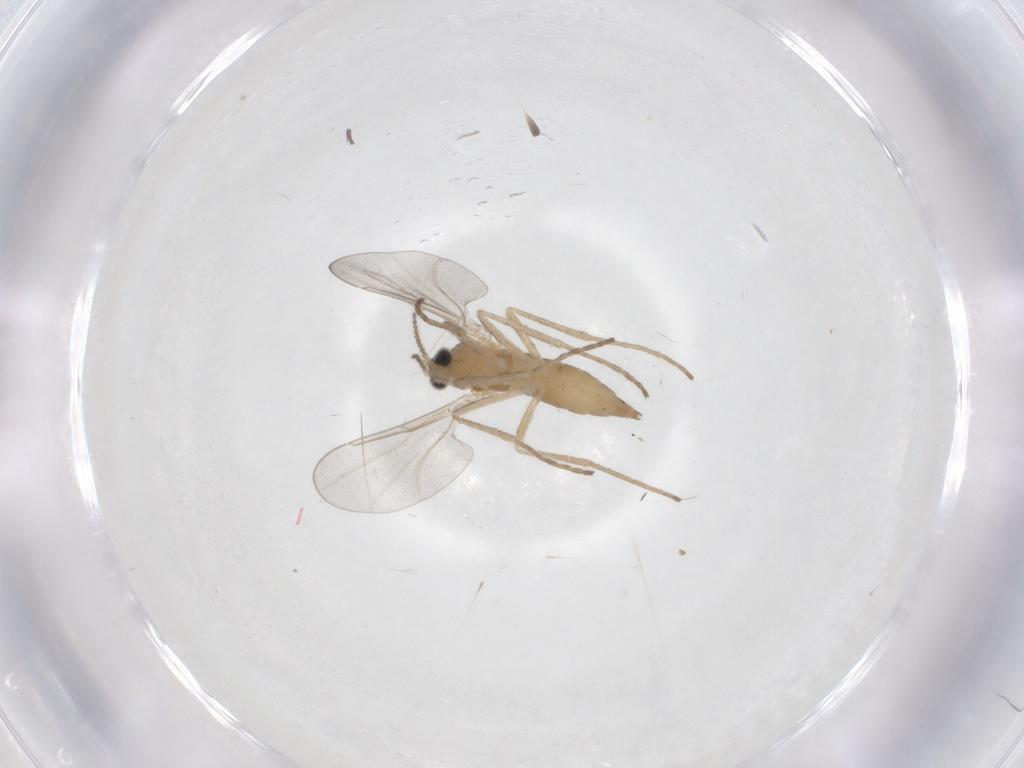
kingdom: Animalia
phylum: Arthropoda
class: Insecta
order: Diptera
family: Cecidomyiidae
